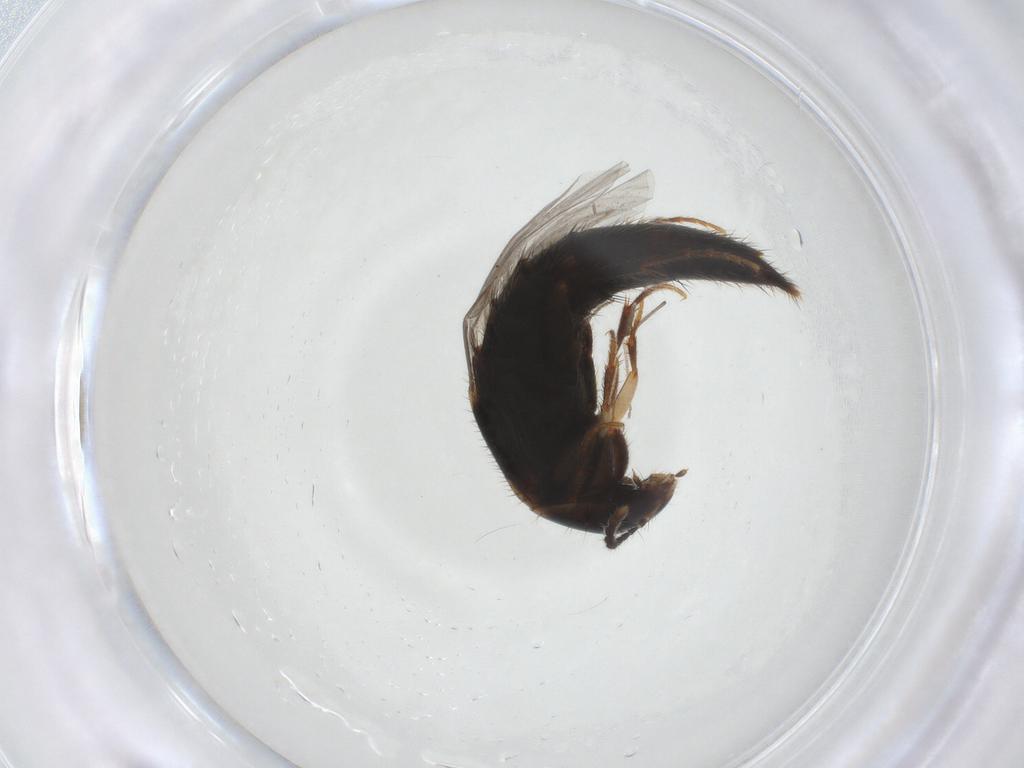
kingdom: Animalia
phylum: Arthropoda
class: Insecta
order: Coleoptera
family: Staphylinidae
